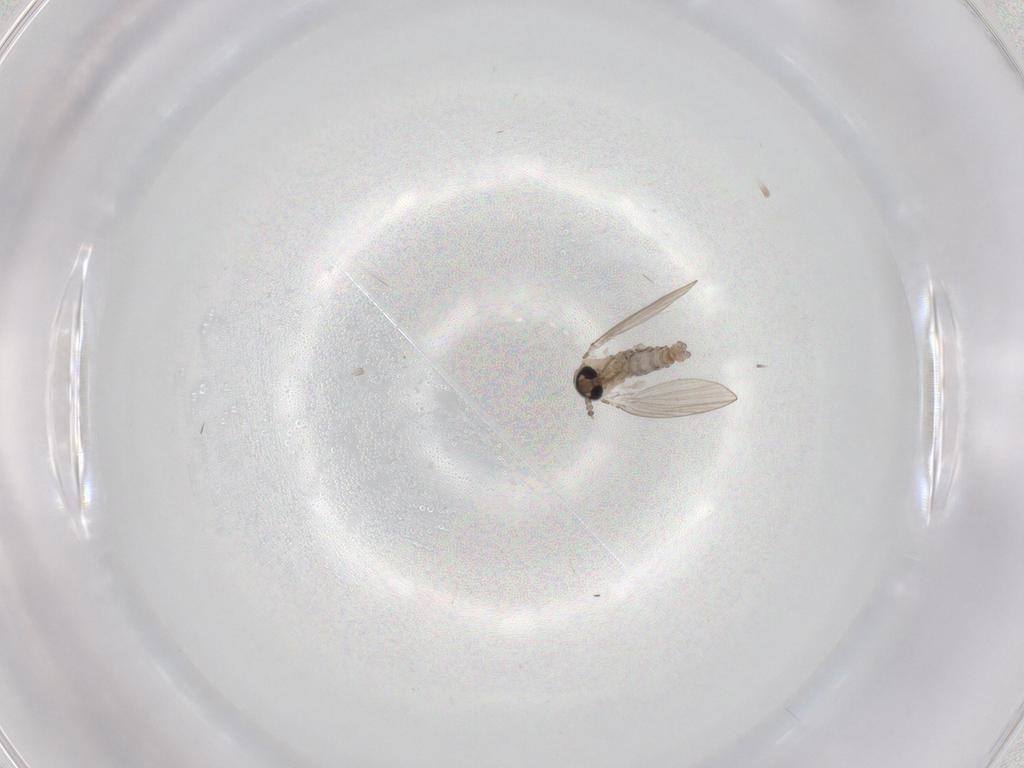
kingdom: Animalia
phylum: Arthropoda
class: Insecta
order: Diptera
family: Psychodidae
